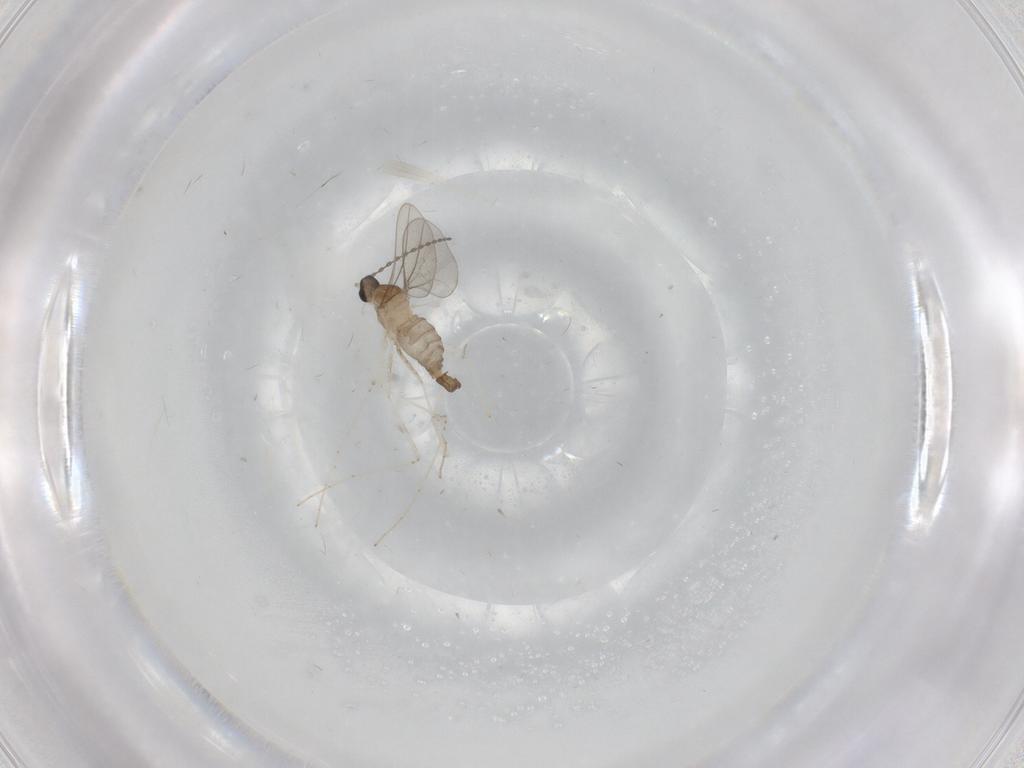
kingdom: Animalia
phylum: Arthropoda
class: Insecta
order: Diptera
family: Cecidomyiidae
